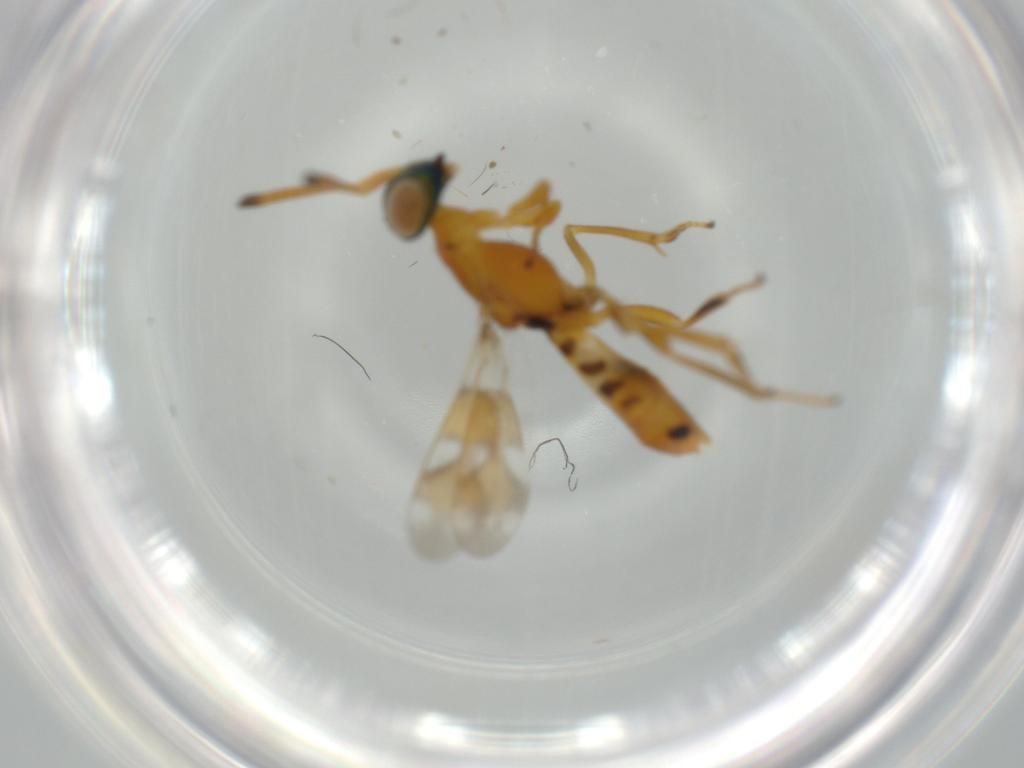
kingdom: Animalia
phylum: Arthropoda
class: Insecta
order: Hymenoptera
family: Eupelmidae
